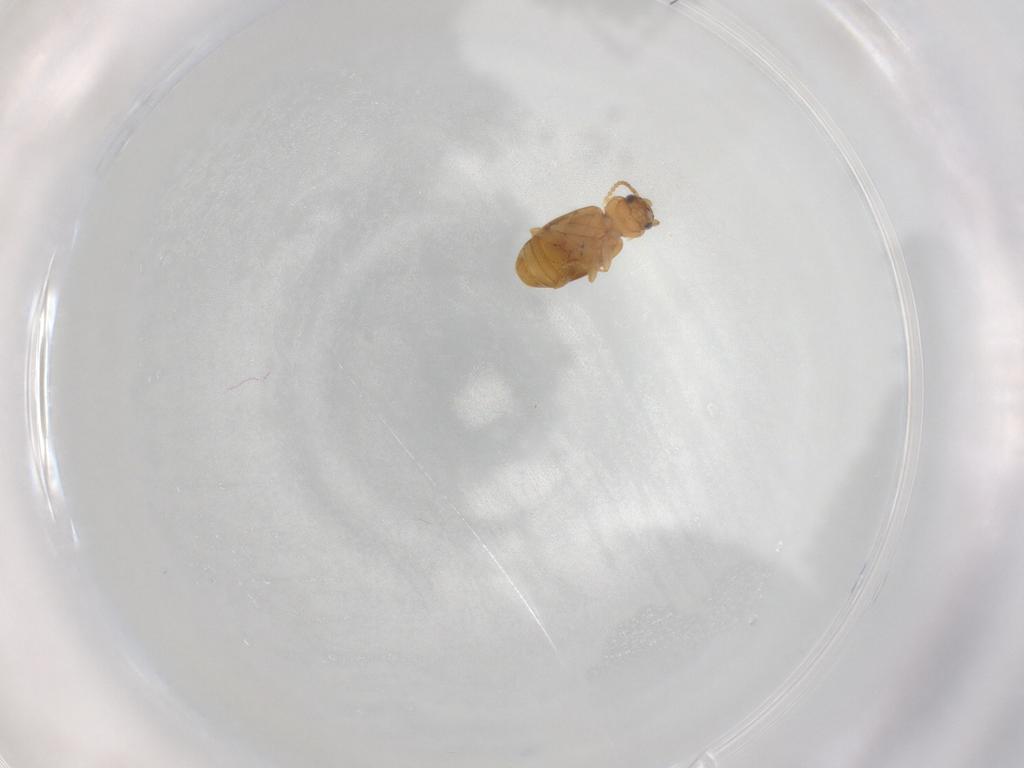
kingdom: Animalia
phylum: Arthropoda
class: Insecta
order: Coleoptera
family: Carabidae
